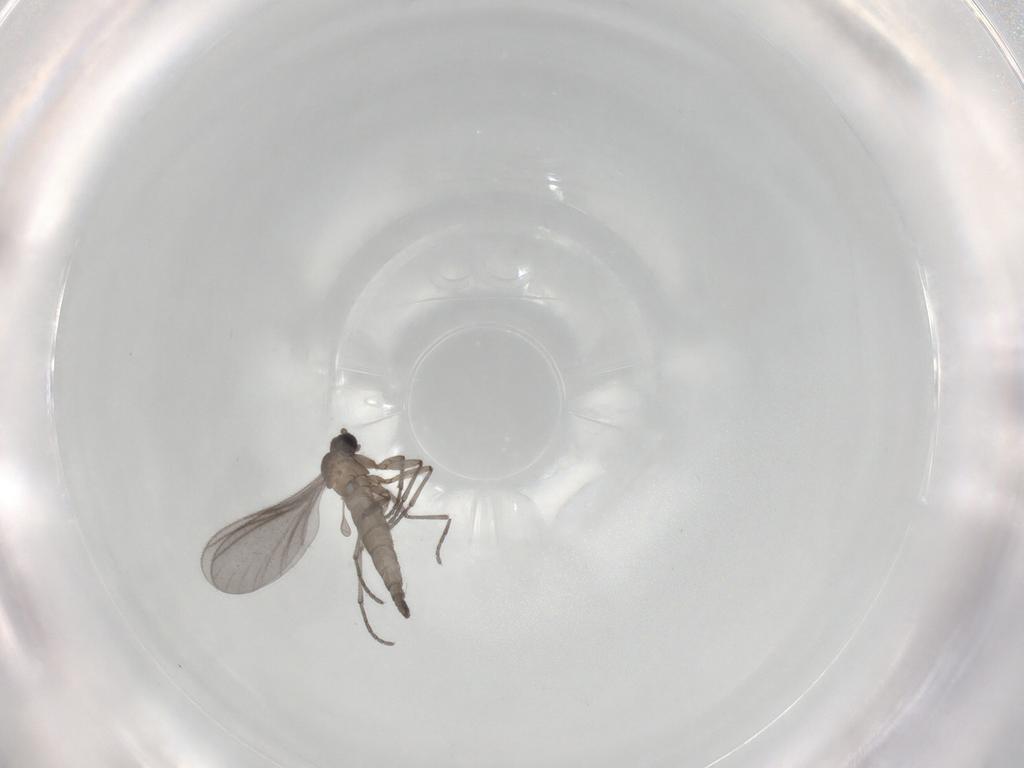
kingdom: Animalia
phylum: Arthropoda
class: Insecta
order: Diptera
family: Sciaridae
